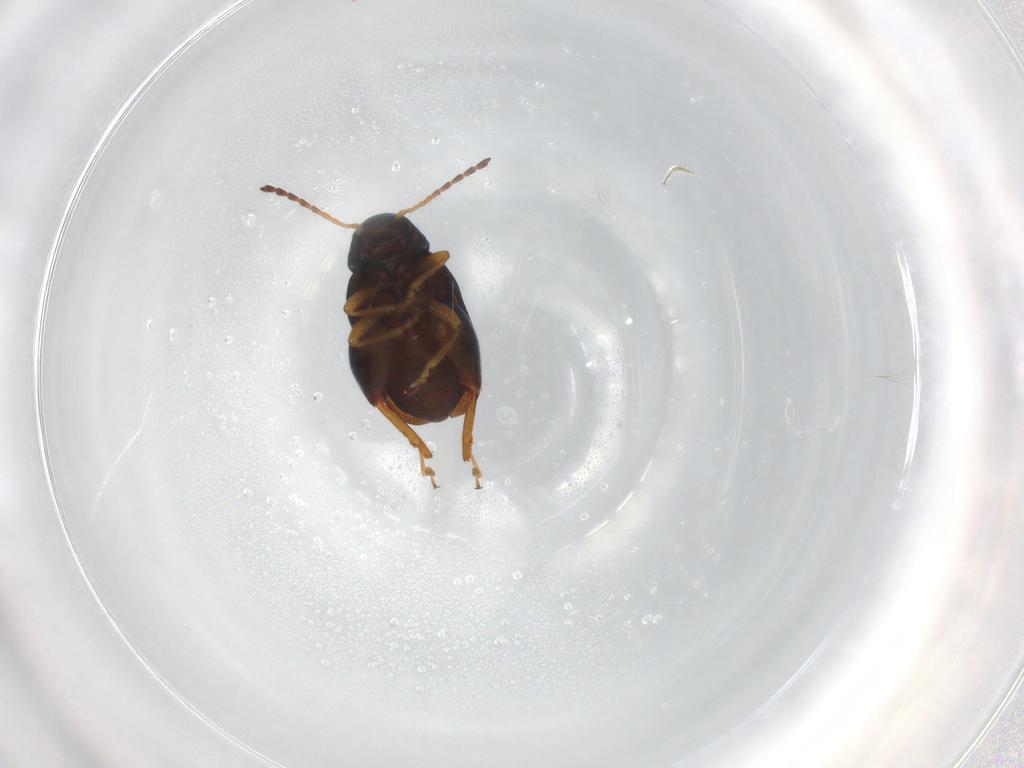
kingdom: Animalia
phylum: Arthropoda
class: Insecta
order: Coleoptera
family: Chrysomelidae
